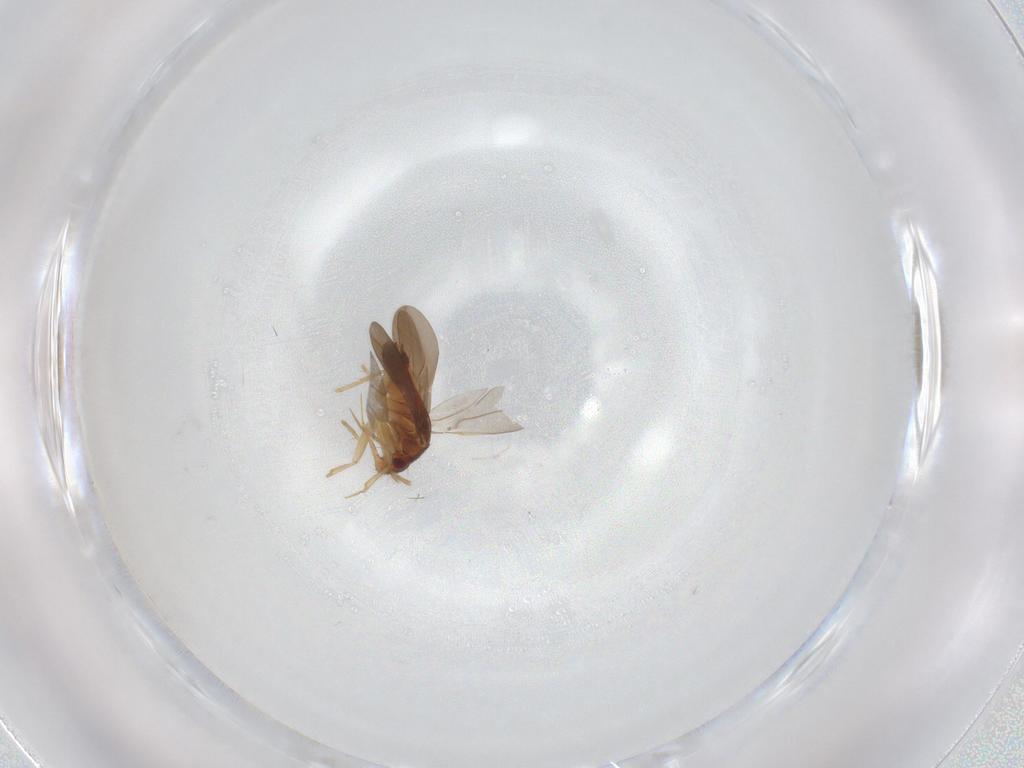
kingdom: Animalia
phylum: Arthropoda
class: Insecta
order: Hemiptera
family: Ceratocombidae
